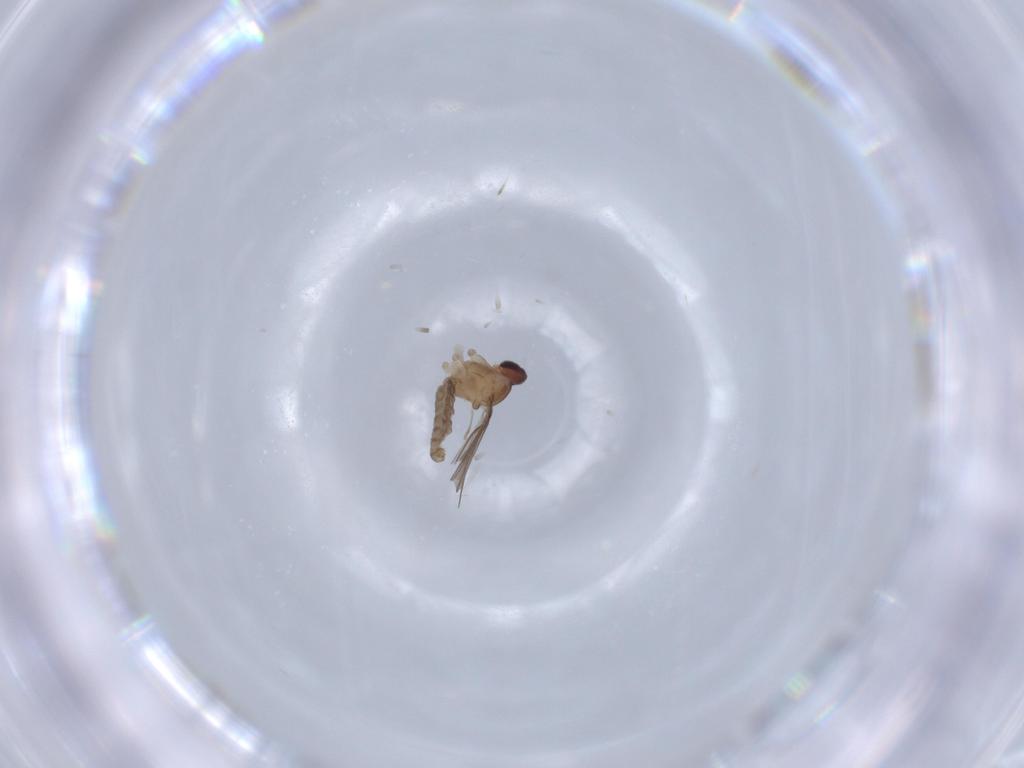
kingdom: Animalia
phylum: Arthropoda
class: Insecta
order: Diptera
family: Cecidomyiidae
